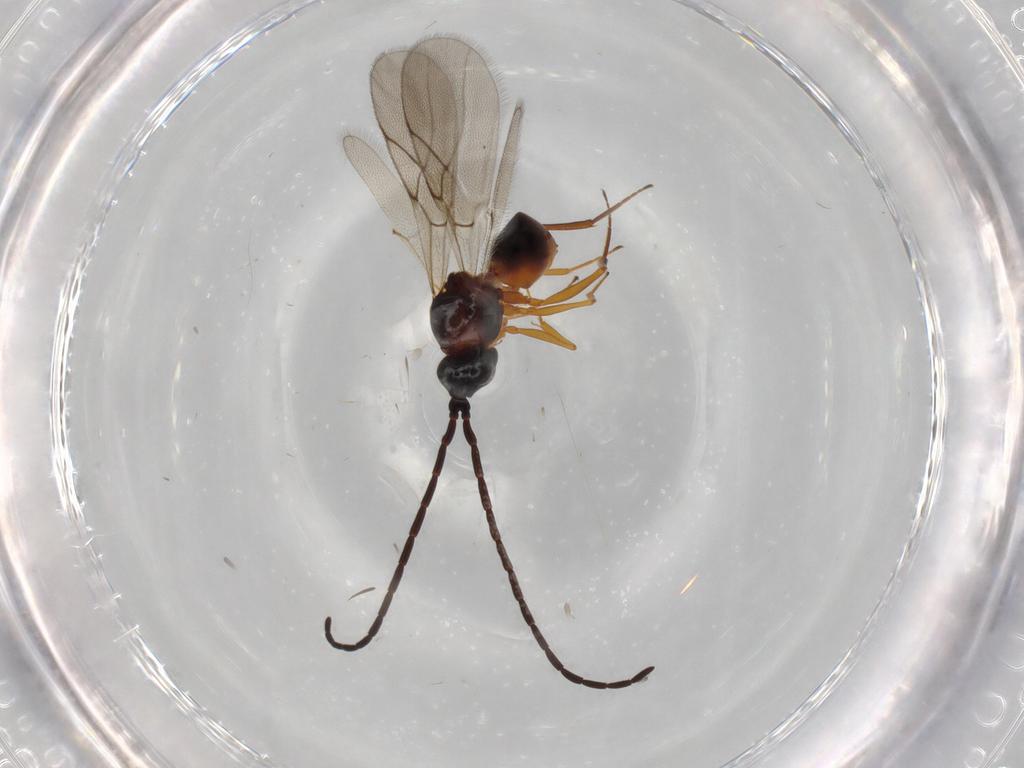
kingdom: Animalia
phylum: Arthropoda
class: Insecta
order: Hymenoptera
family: Figitidae
